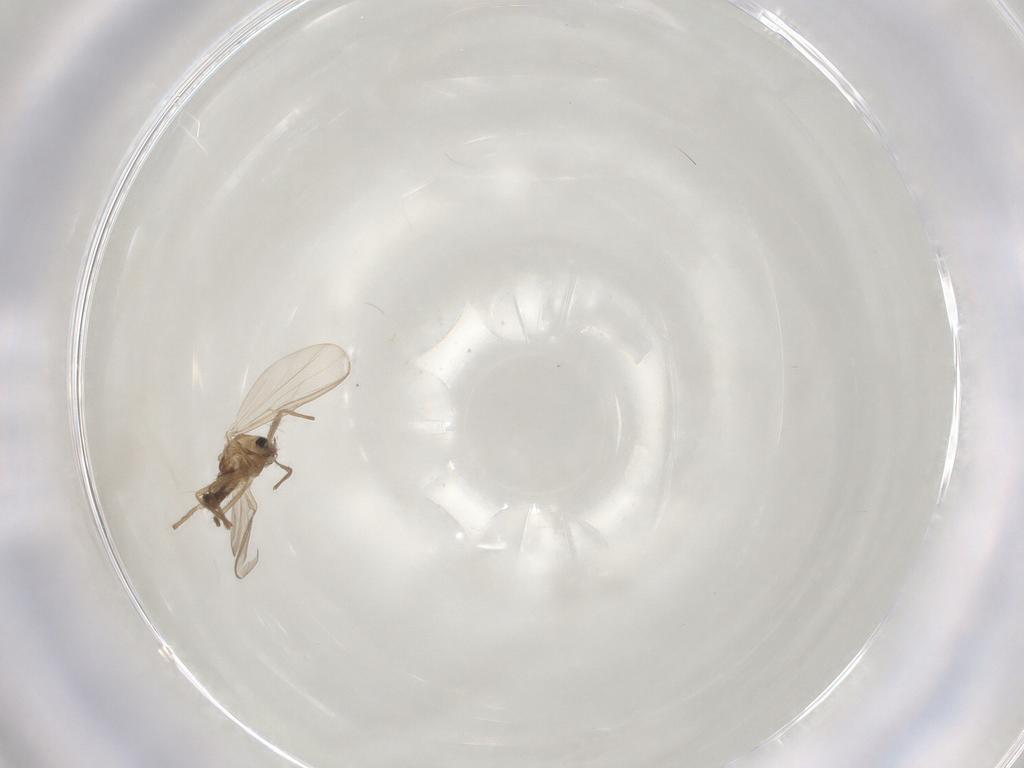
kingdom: Animalia
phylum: Arthropoda
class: Insecta
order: Diptera
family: Chironomidae
